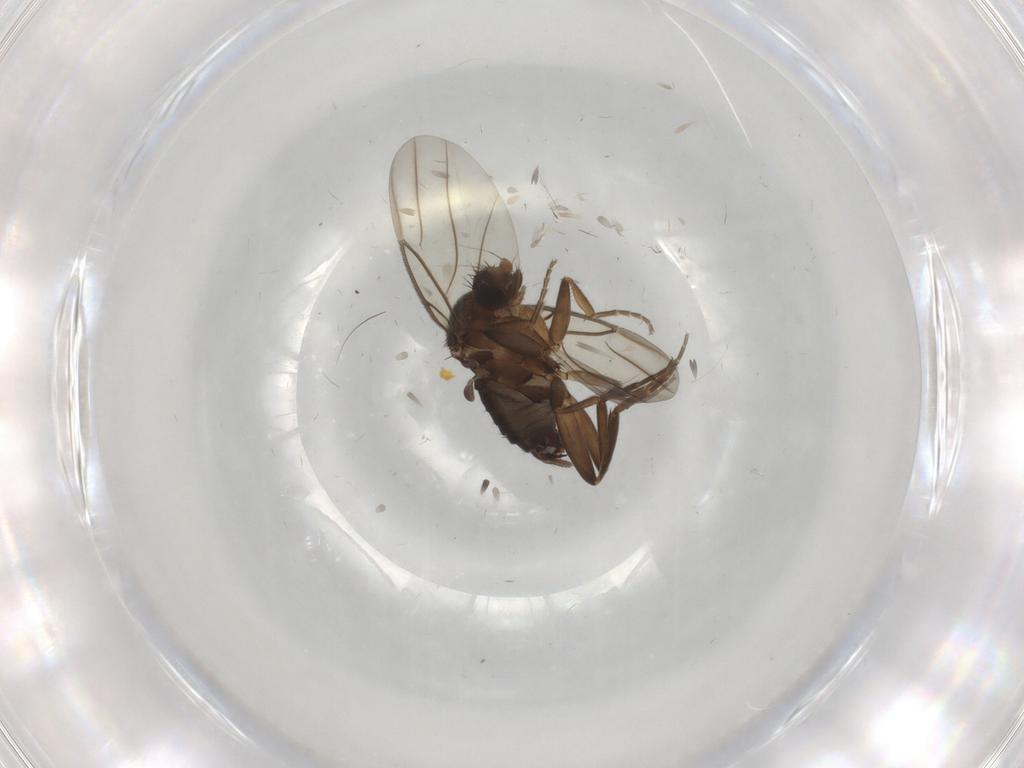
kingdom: Animalia
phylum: Arthropoda
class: Insecta
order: Diptera
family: Tabanidae
